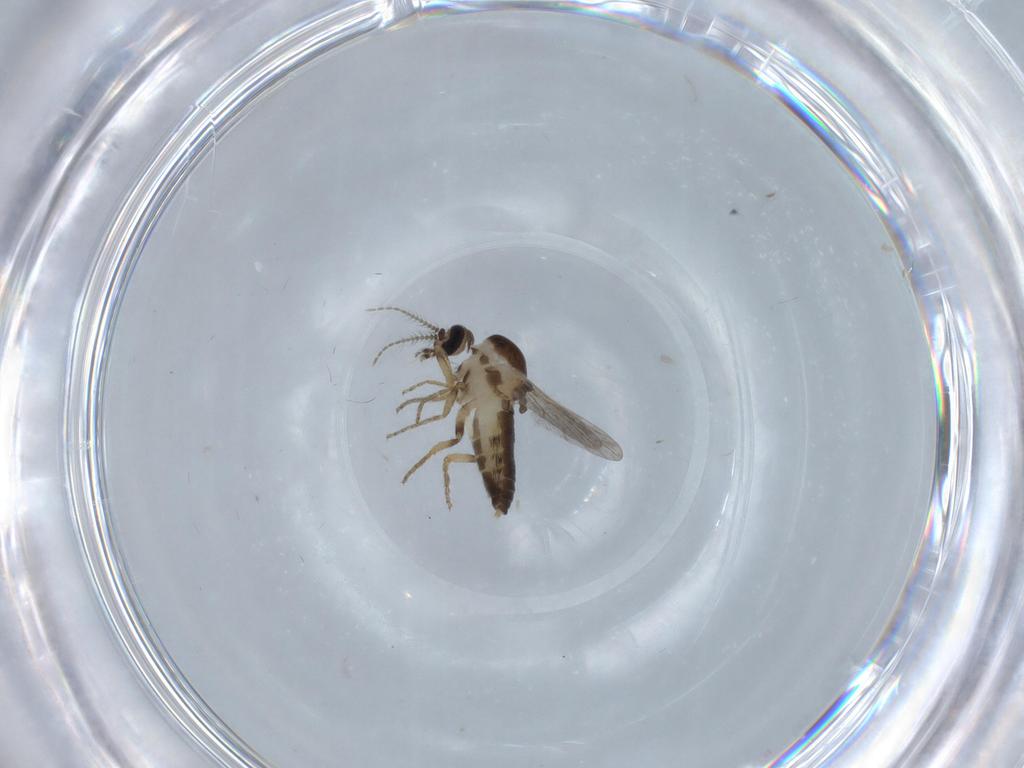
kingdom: Animalia
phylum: Arthropoda
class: Insecta
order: Diptera
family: Ceratopogonidae
